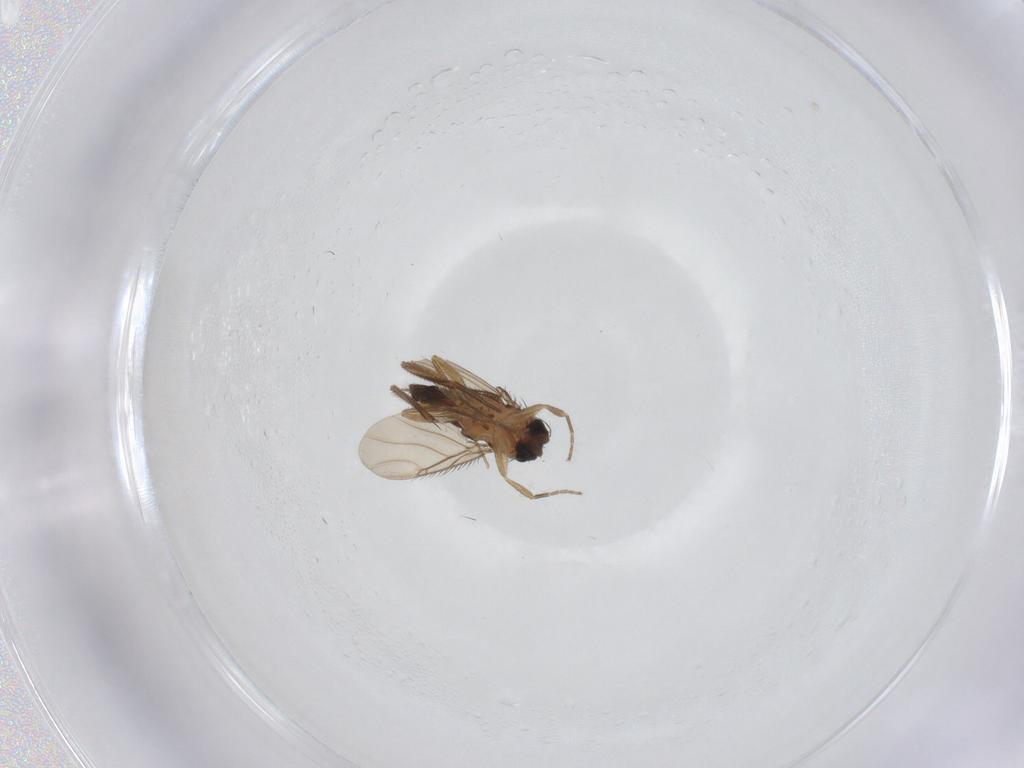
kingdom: Animalia
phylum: Arthropoda
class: Insecta
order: Diptera
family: Phoridae
